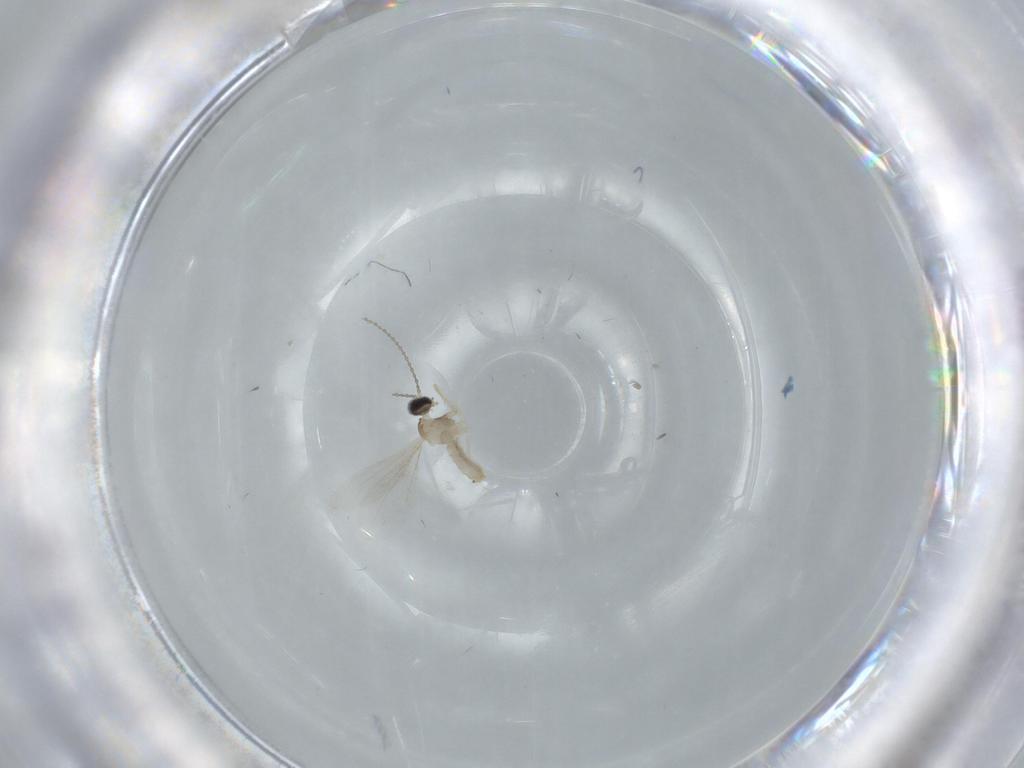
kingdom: Animalia
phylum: Arthropoda
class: Insecta
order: Diptera
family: Cecidomyiidae
